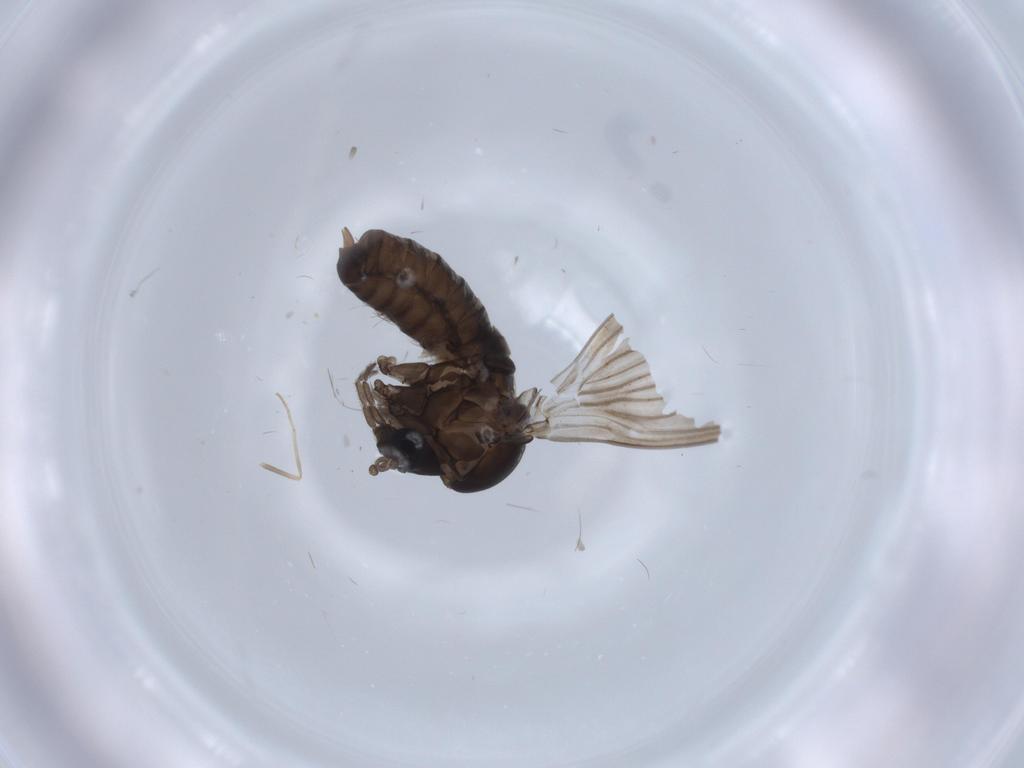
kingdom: Animalia
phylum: Arthropoda
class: Insecta
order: Diptera
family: Psychodidae
